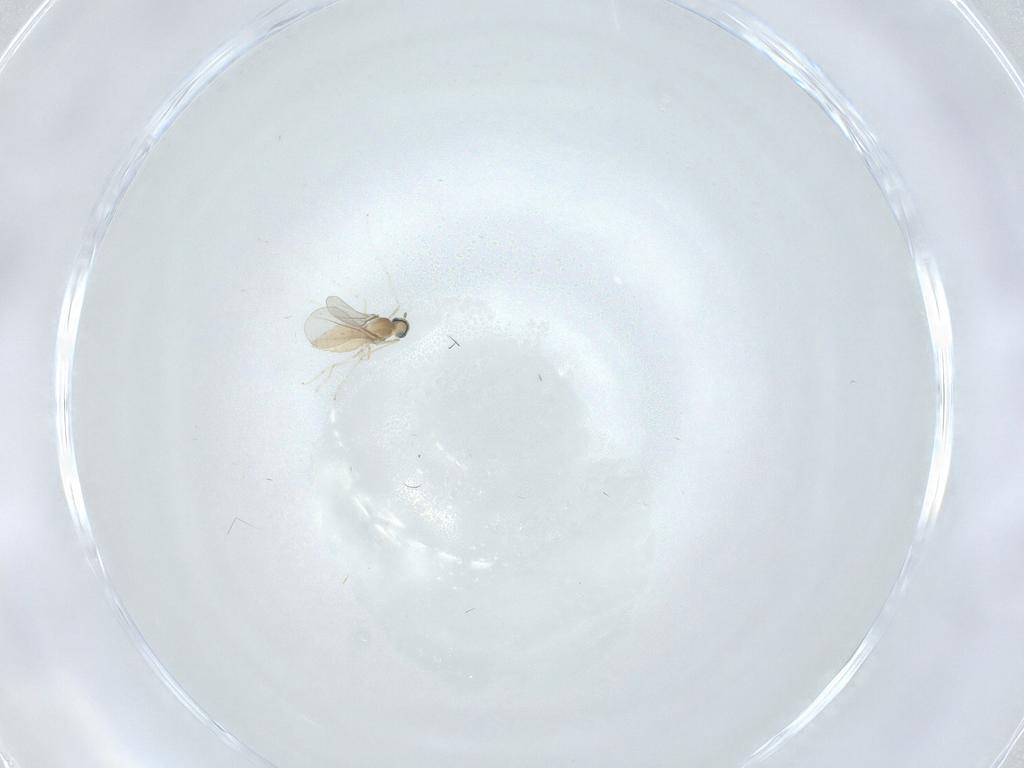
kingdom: Animalia
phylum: Arthropoda
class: Insecta
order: Diptera
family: Cecidomyiidae
